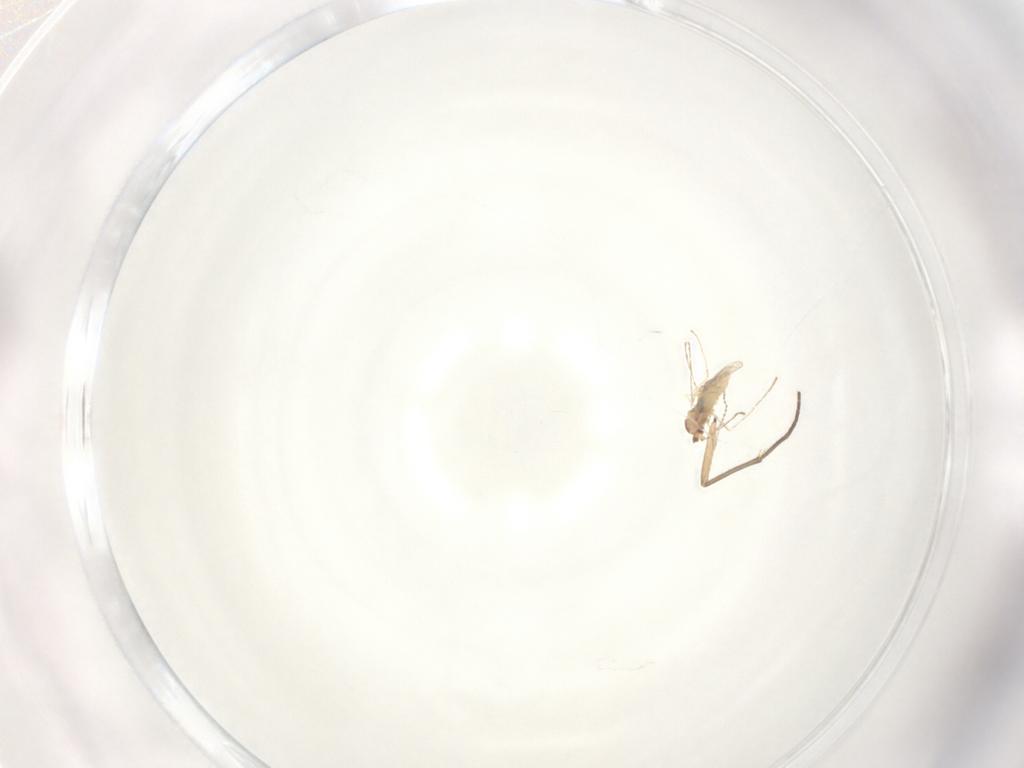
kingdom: Animalia
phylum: Arthropoda
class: Insecta
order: Diptera
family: Cecidomyiidae
